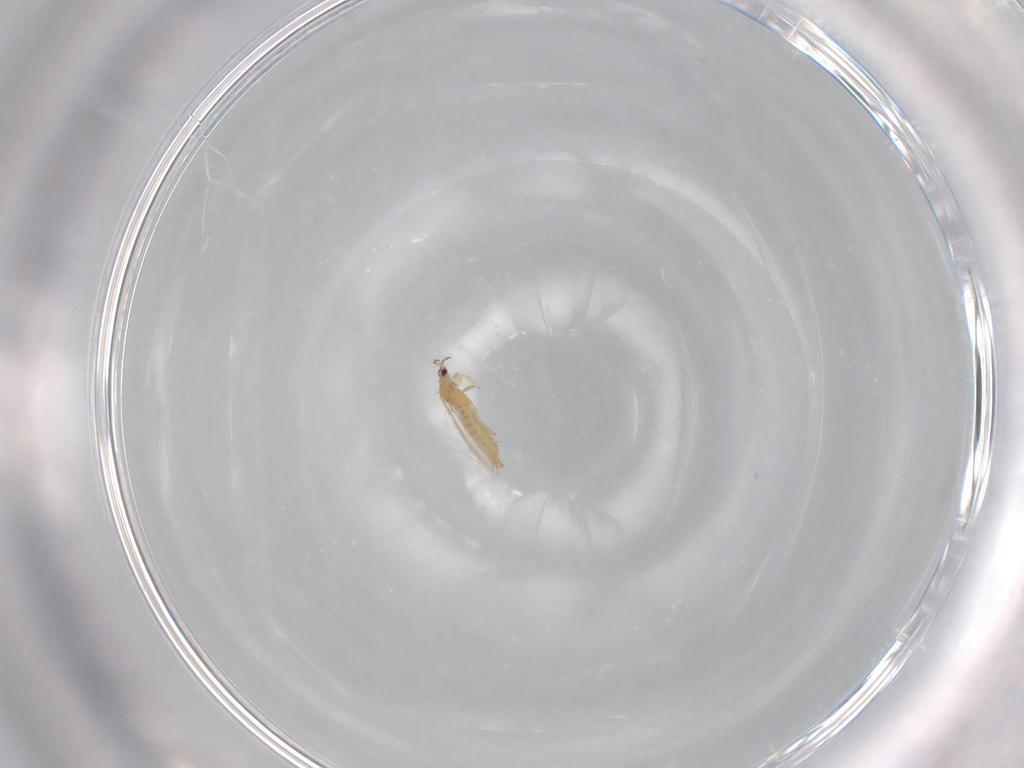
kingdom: Animalia
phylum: Arthropoda
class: Insecta
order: Thysanoptera
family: Thripidae
